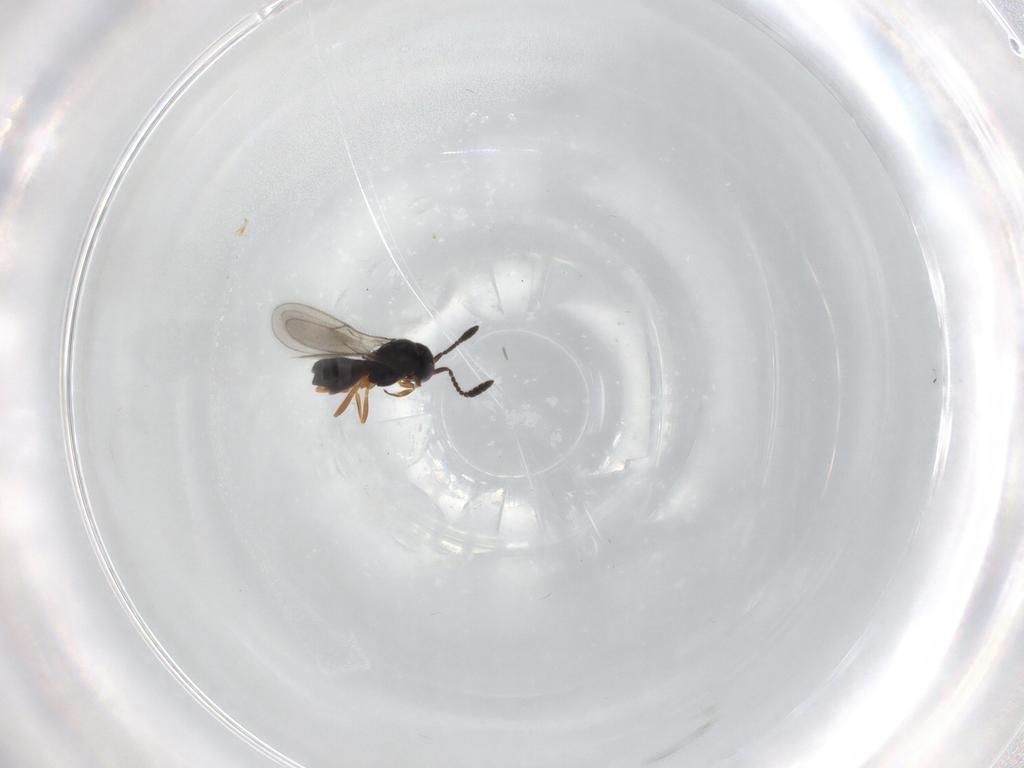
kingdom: Animalia
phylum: Arthropoda
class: Insecta
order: Hymenoptera
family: Scelionidae
